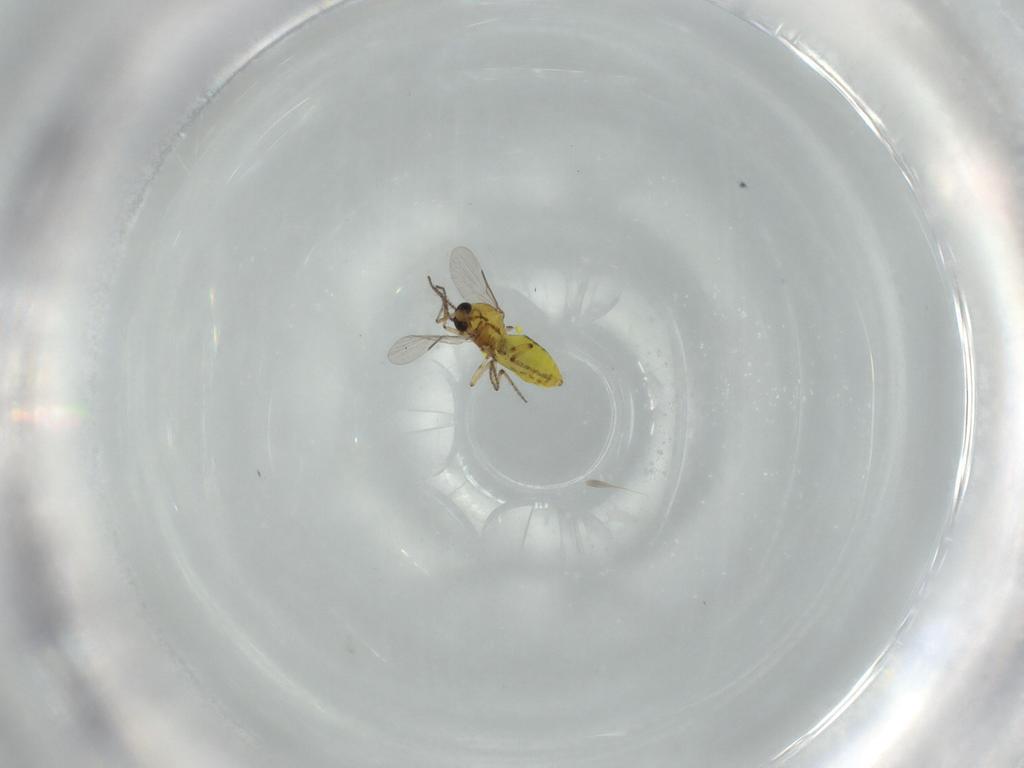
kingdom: Animalia
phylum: Arthropoda
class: Insecta
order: Diptera
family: Ceratopogonidae
